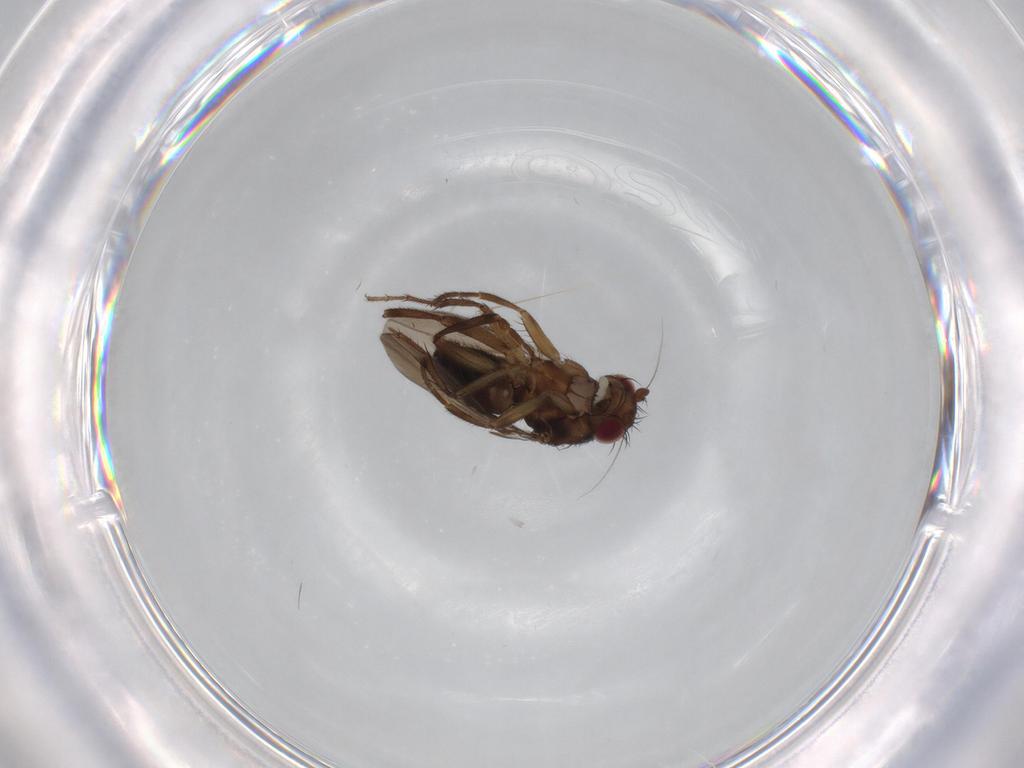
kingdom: Animalia
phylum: Arthropoda
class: Insecta
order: Diptera
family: Sphaeroceridae
